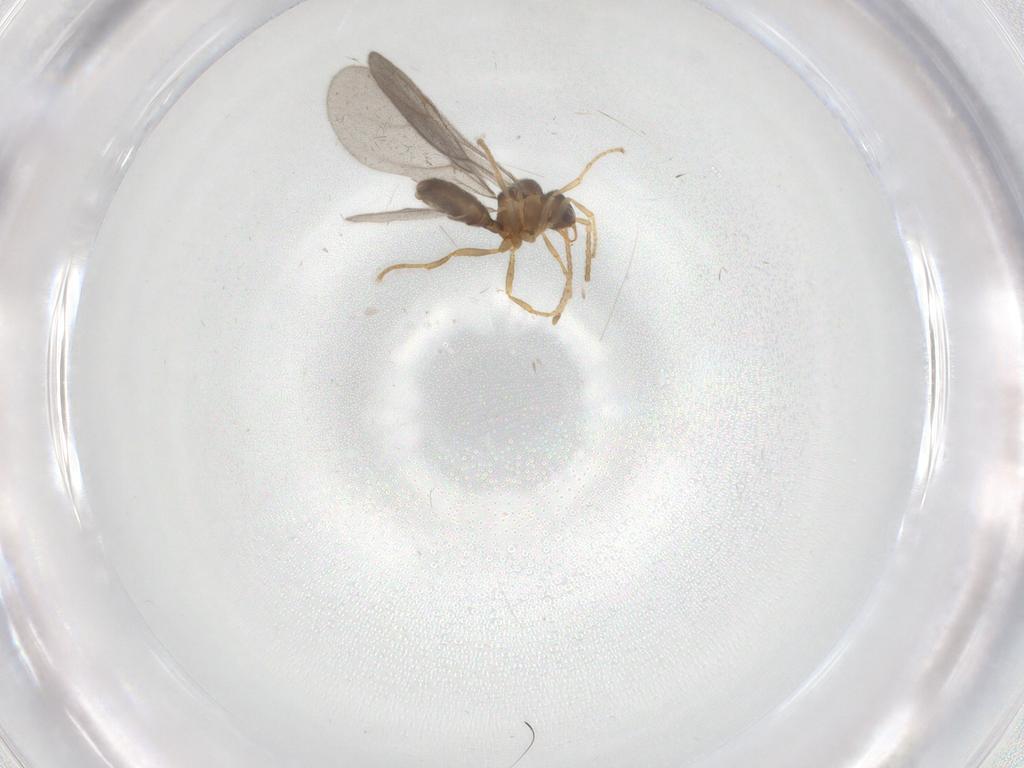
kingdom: Animalia
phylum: Arthropoda
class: Insecta
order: Hymenoptera
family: Formicidae
